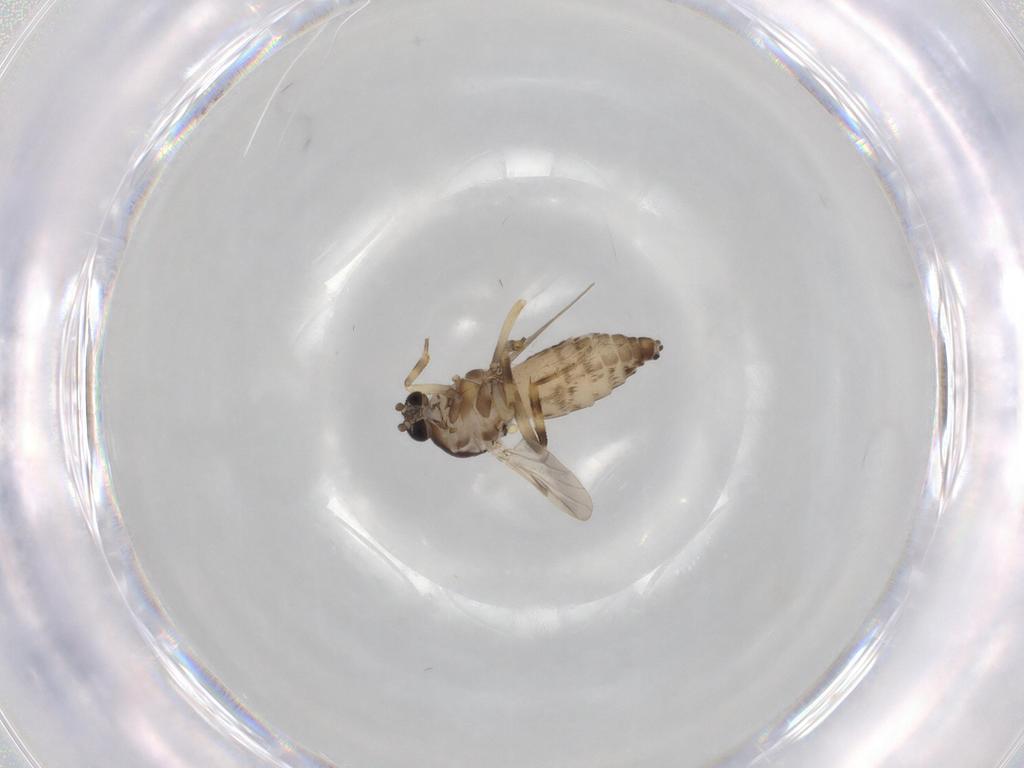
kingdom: Animalia
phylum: Arthropoda
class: Insecta
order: Diptera
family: Ceratopogonidae
